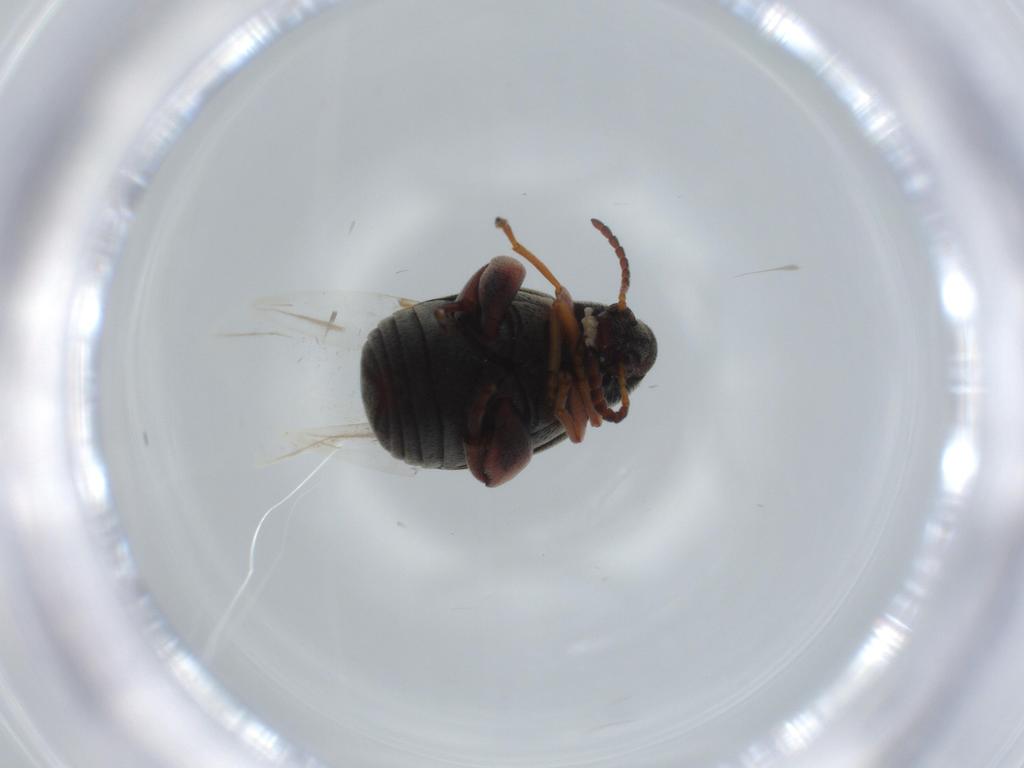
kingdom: Animalia
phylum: Arthropoda
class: Insecta
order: Coleoptera
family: Chrysomelidae
